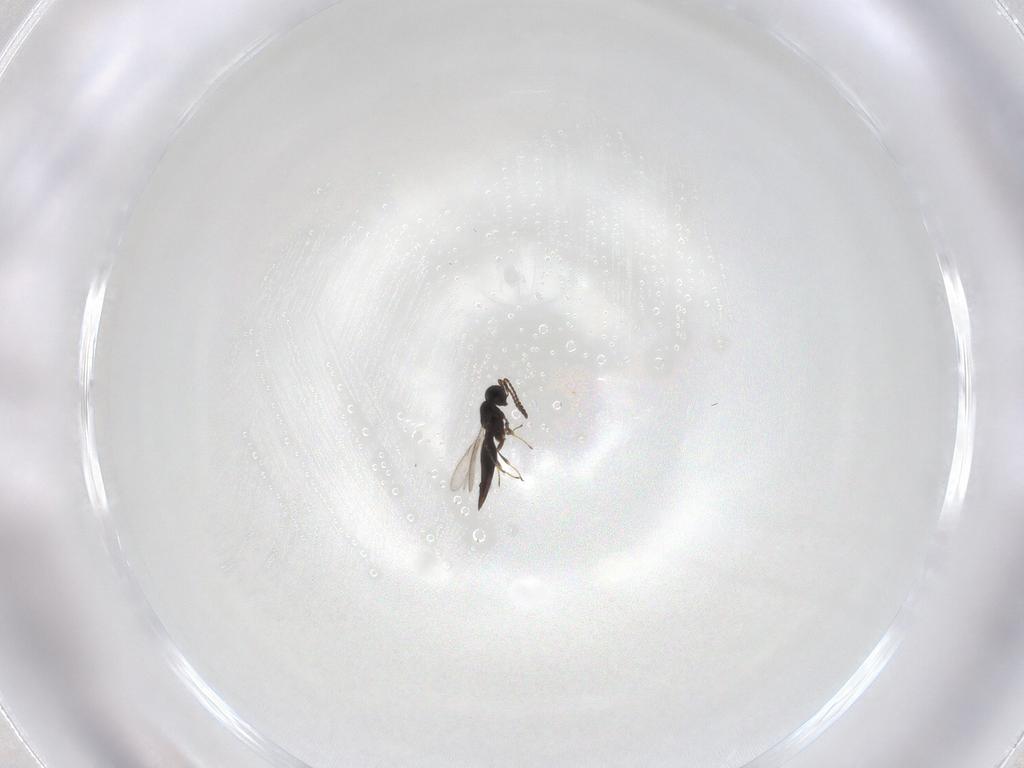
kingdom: Animalia
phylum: Arthropoda
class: Insecta
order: Hymenoptera
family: Scelionidae
